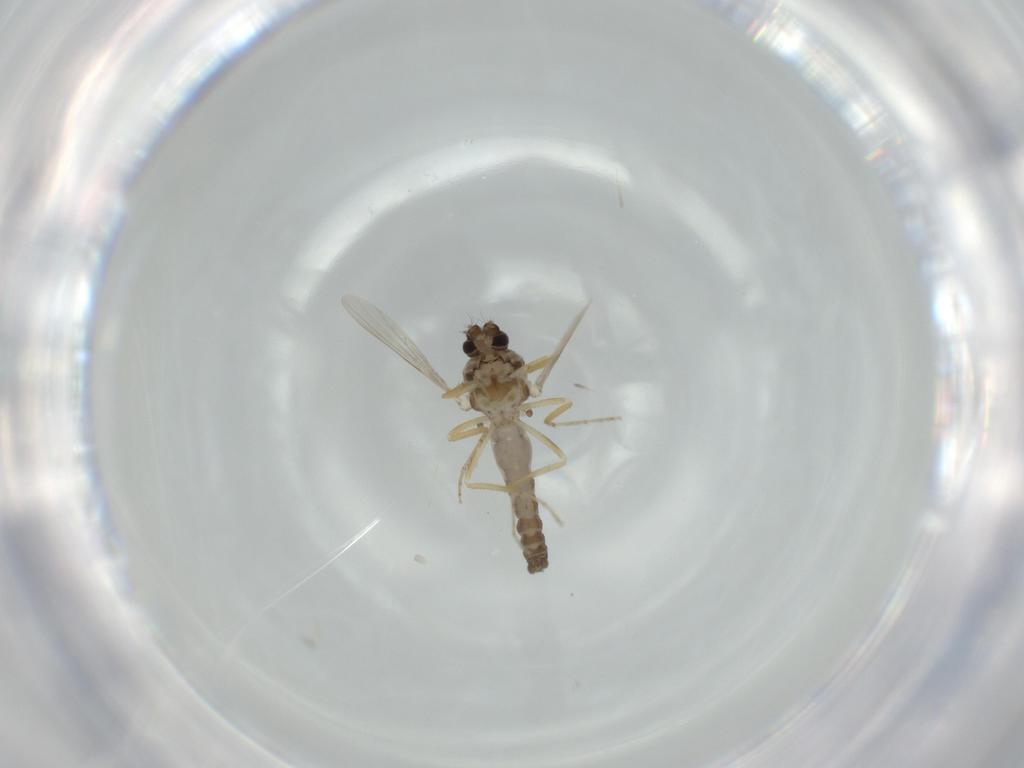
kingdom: Animalia
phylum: Arthropoda
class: Insecta
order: Diptera
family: Ceratopogonidae
